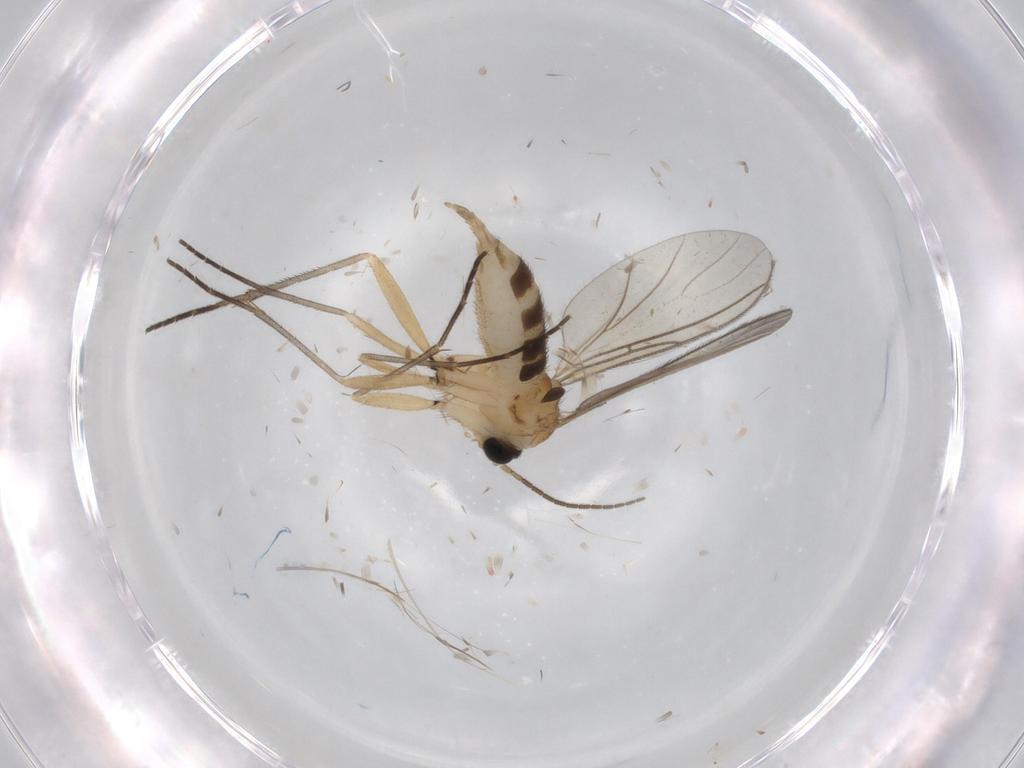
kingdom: Animalia
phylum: Arthropoda
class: Insecta
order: Diptera
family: Sciaridae
